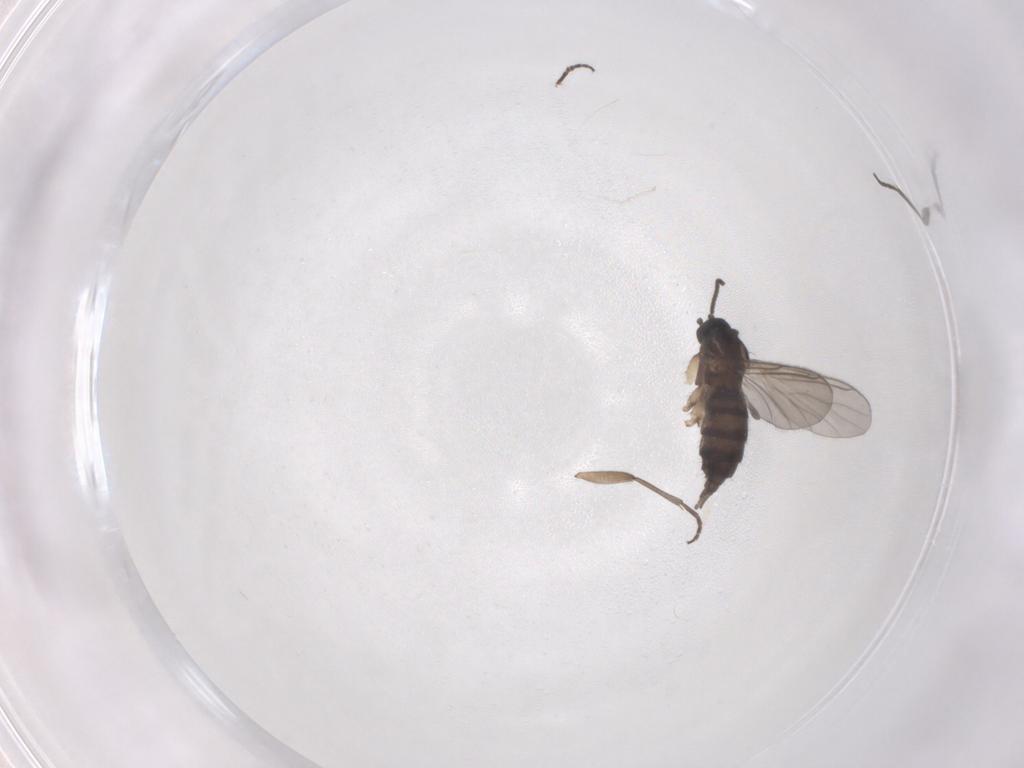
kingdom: Animalia
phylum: Arthropoda
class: Insecta
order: Diptera
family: Sciaridae
